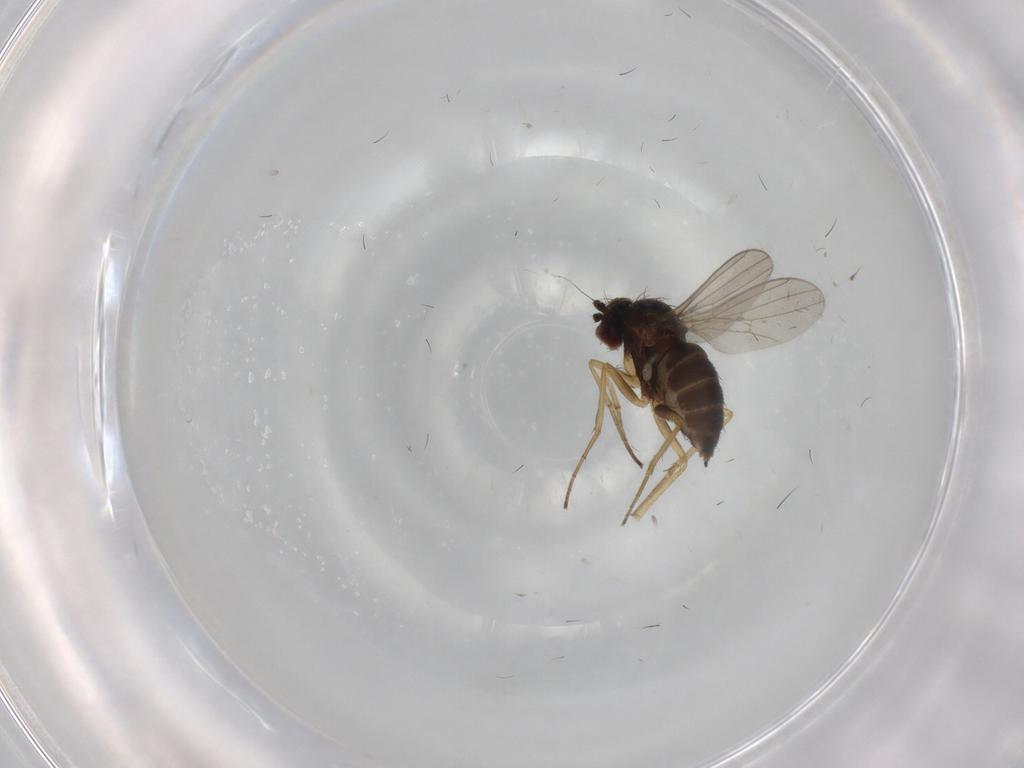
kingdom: Animalia
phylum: Arthropoda
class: Insecta
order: Diptera
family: Dolichopodidae
